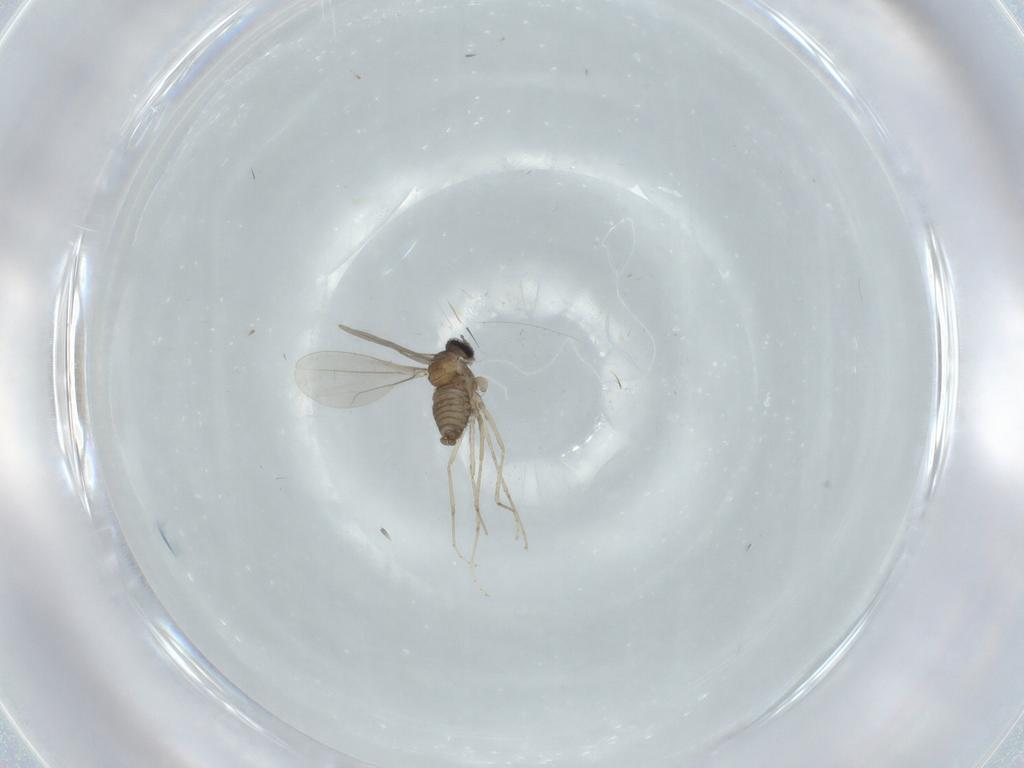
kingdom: Animalia
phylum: Arthropoda
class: Insecta
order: Diptera
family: Cecidomyiidae
